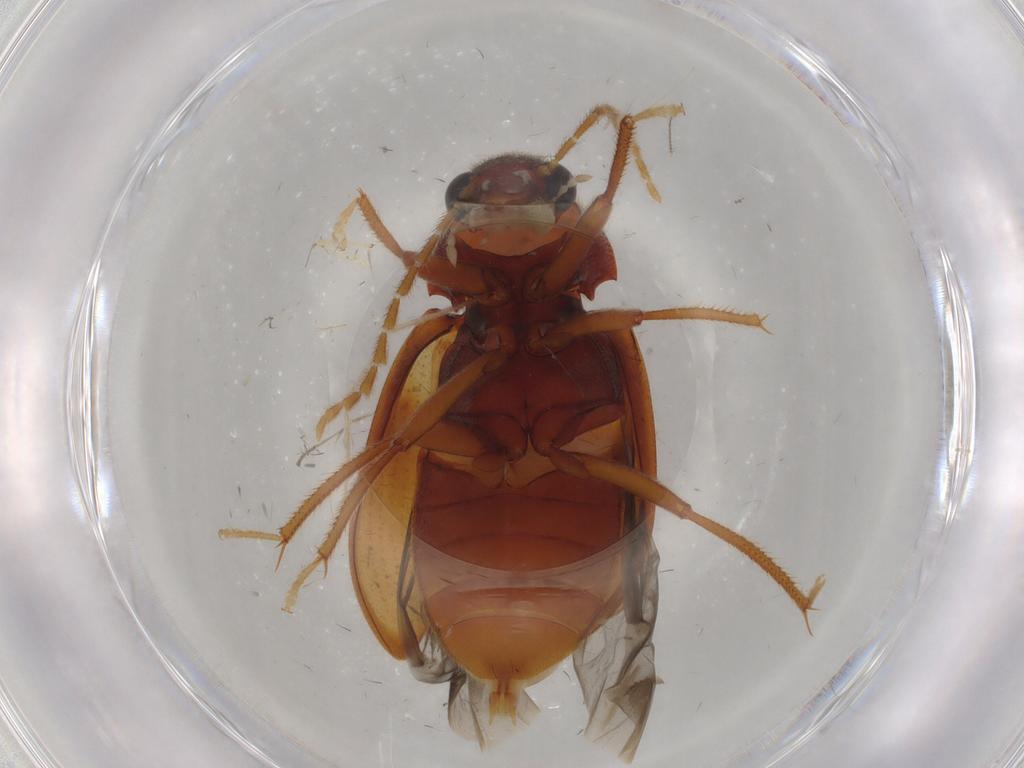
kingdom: Animalia
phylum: Arthropoda
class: Insecta
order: Coleoptera
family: Ptilodactylidae
